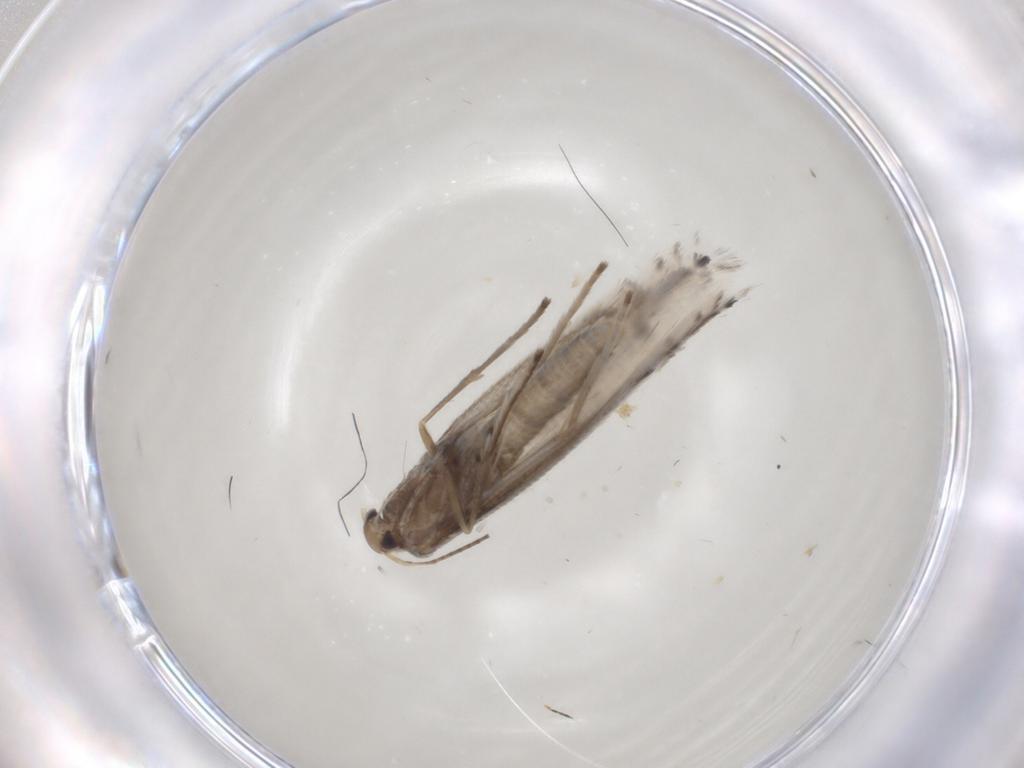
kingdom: Animalia
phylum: Arthropoda
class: Insecta
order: Lepidoptera
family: Gracillariidae
